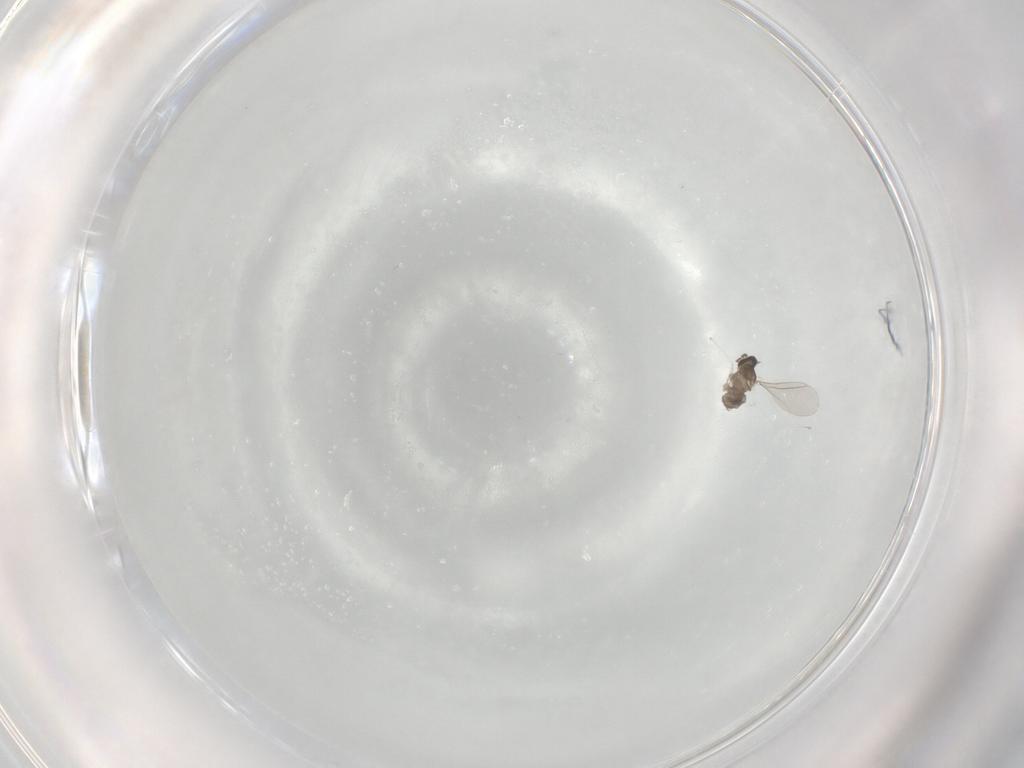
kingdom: Animalia
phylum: Arthropoda
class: Insecta
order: Diptera
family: Cecidomyiidae
